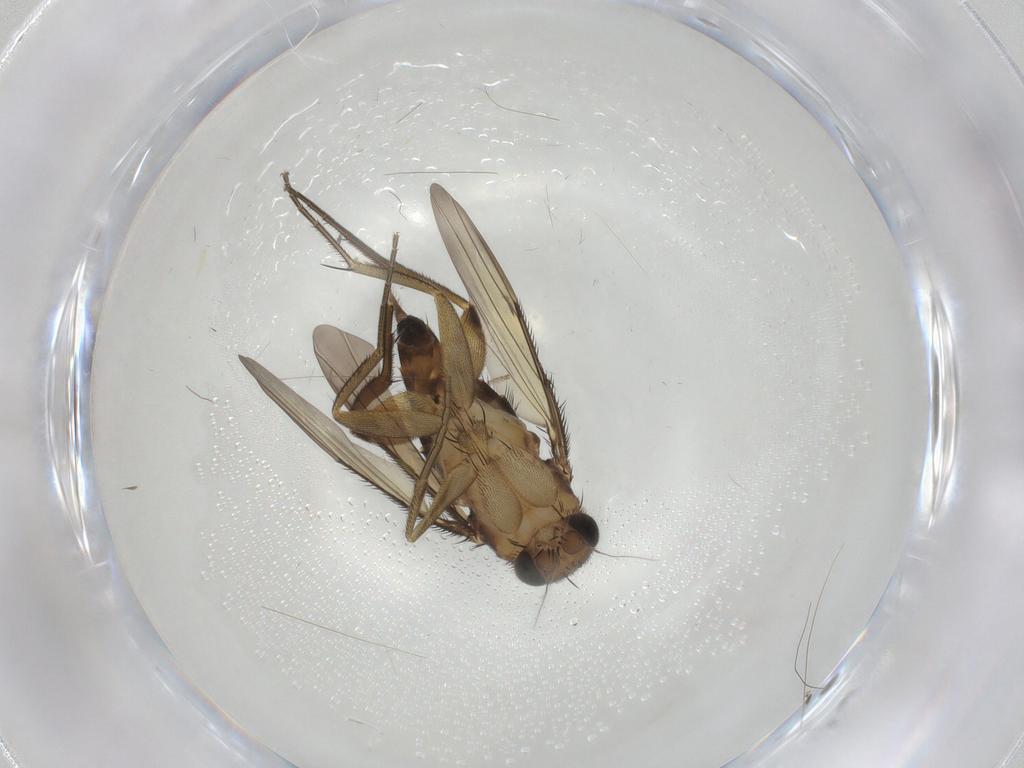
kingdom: Animalia
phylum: Arthropoda
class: Insecta
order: Diptera
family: Phoridae
